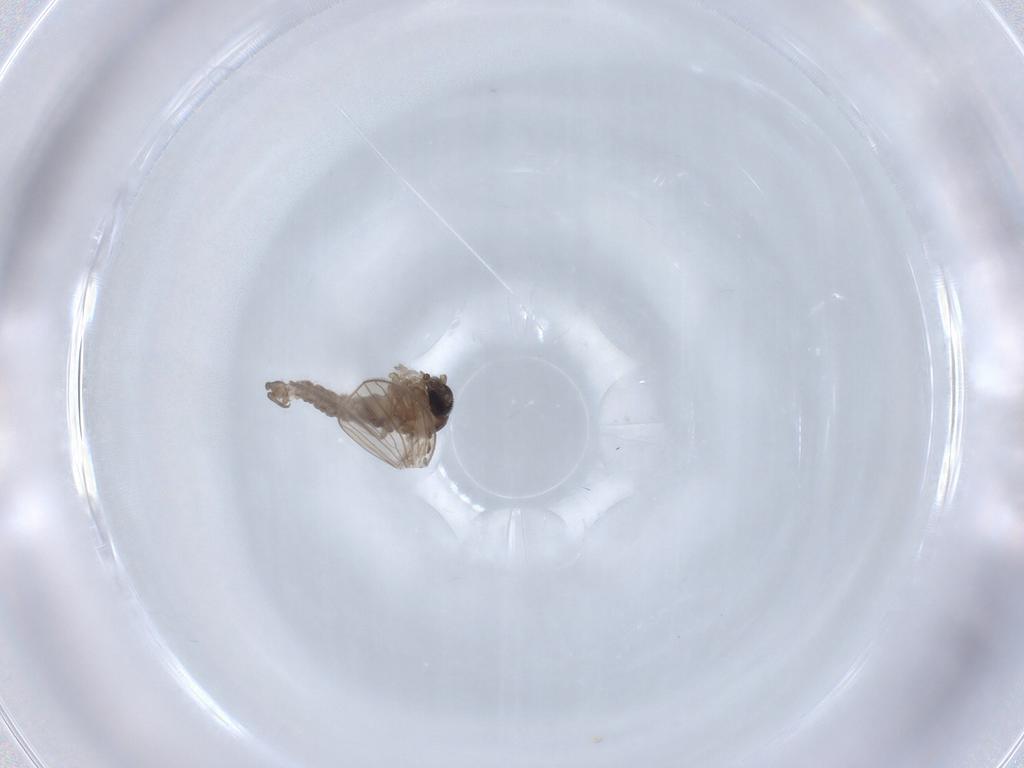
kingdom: Animalia
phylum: Arthropoda
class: Insecta
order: Diptera
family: Psychodidae
